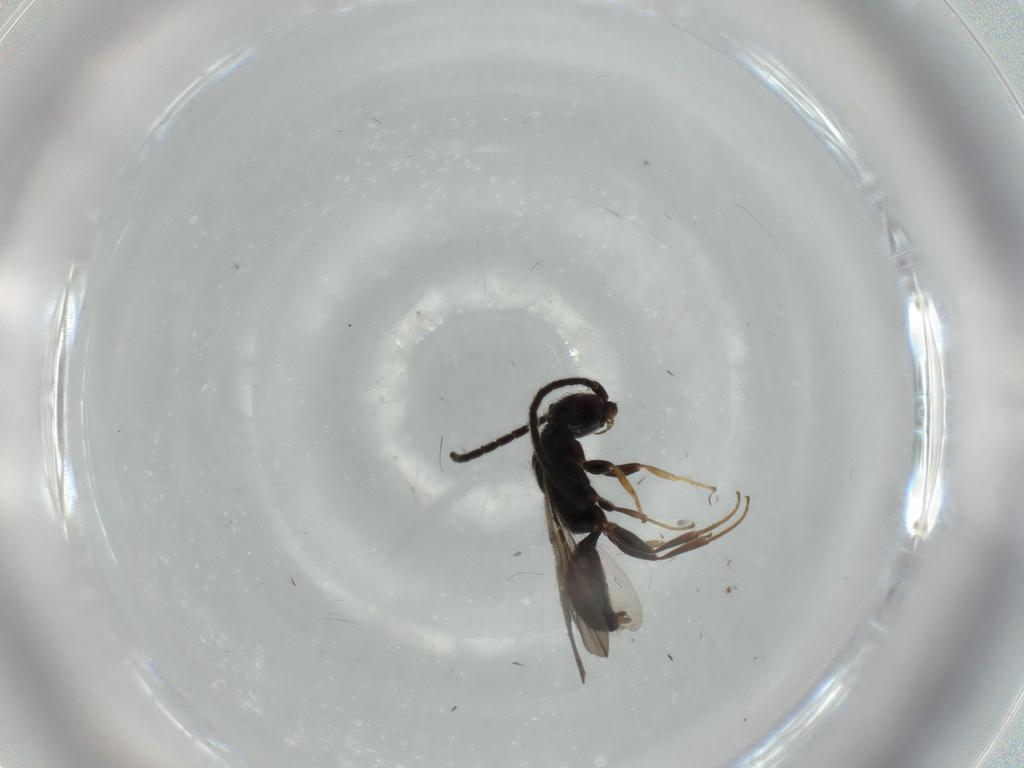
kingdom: Animalia
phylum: Arthropoda
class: Insecta
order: Hymenoptera
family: Bethylidae
